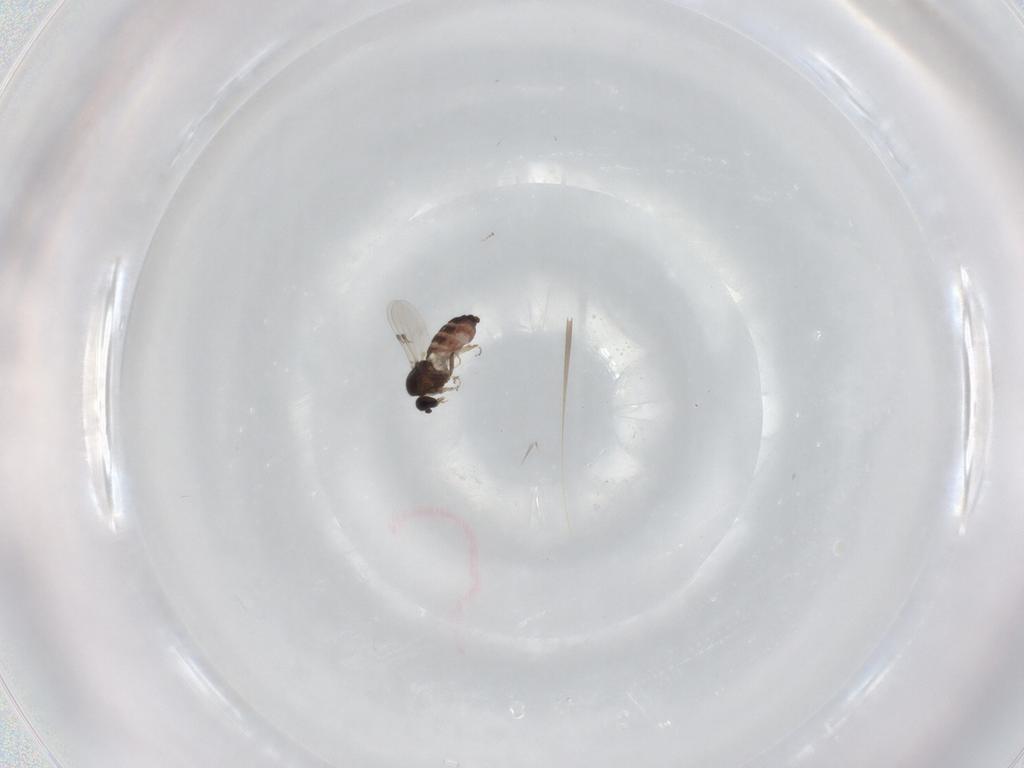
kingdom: Animalia
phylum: Arthropoda
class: Insecta
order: Diptera
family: Ceratopogonidae
